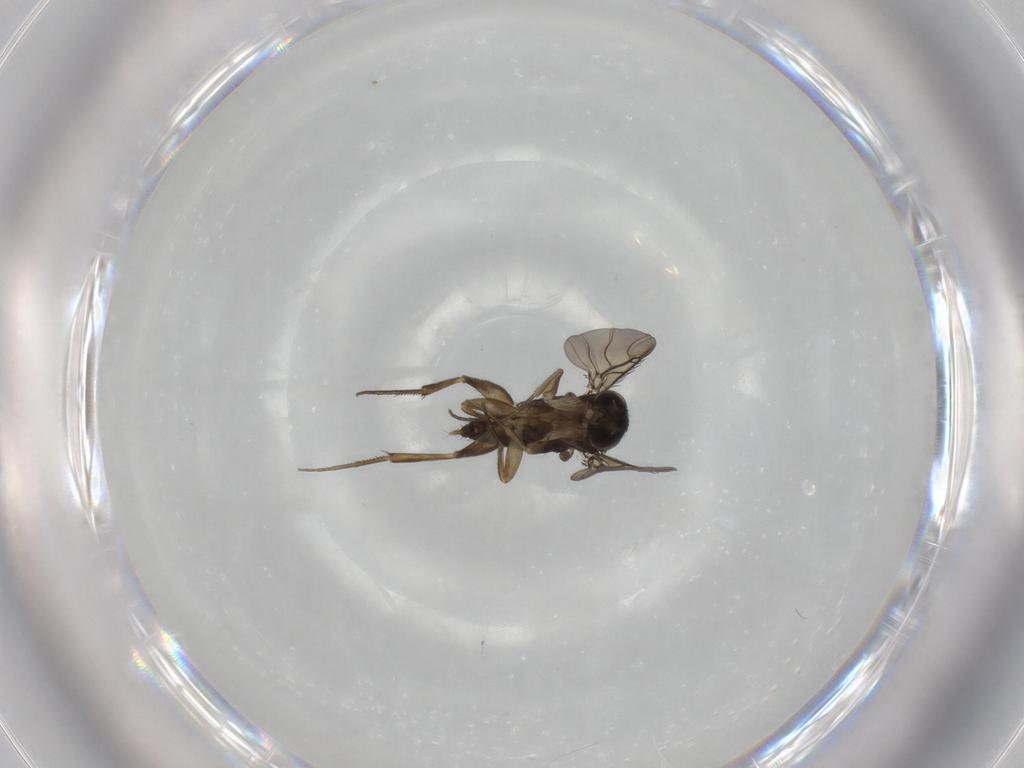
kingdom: Animalia
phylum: Arthropoda
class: Insecta
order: Diptera
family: Phoridae
